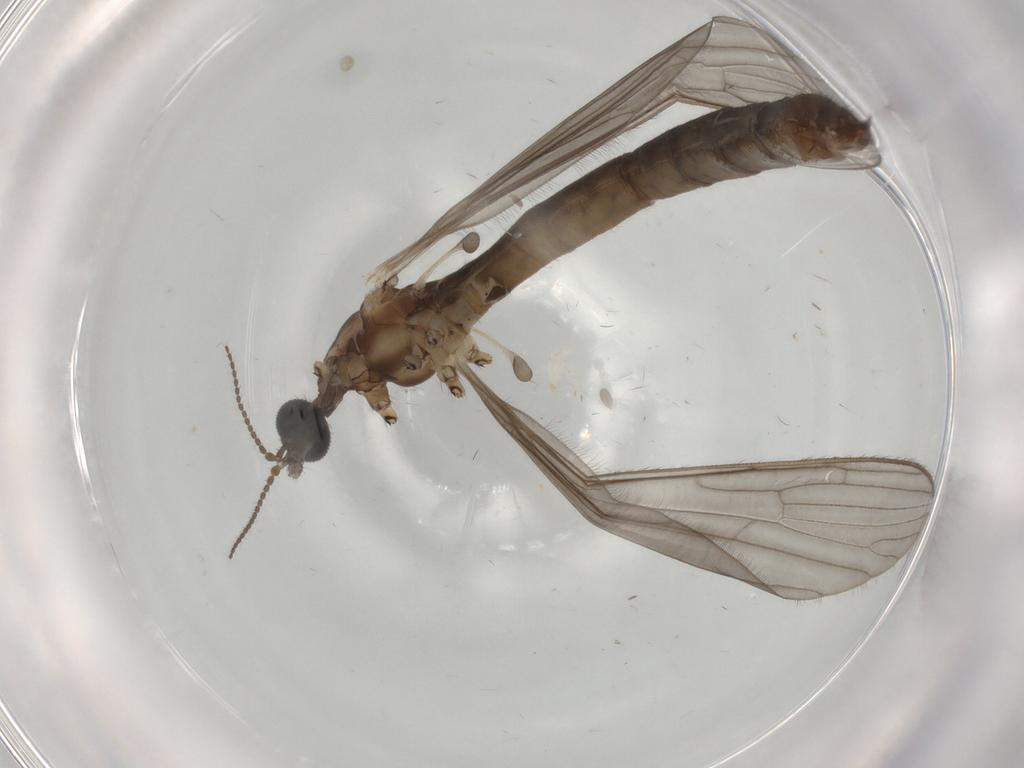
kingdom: Animalia
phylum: Arthropoda
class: Insecta
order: Diptera
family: Limoniidae
